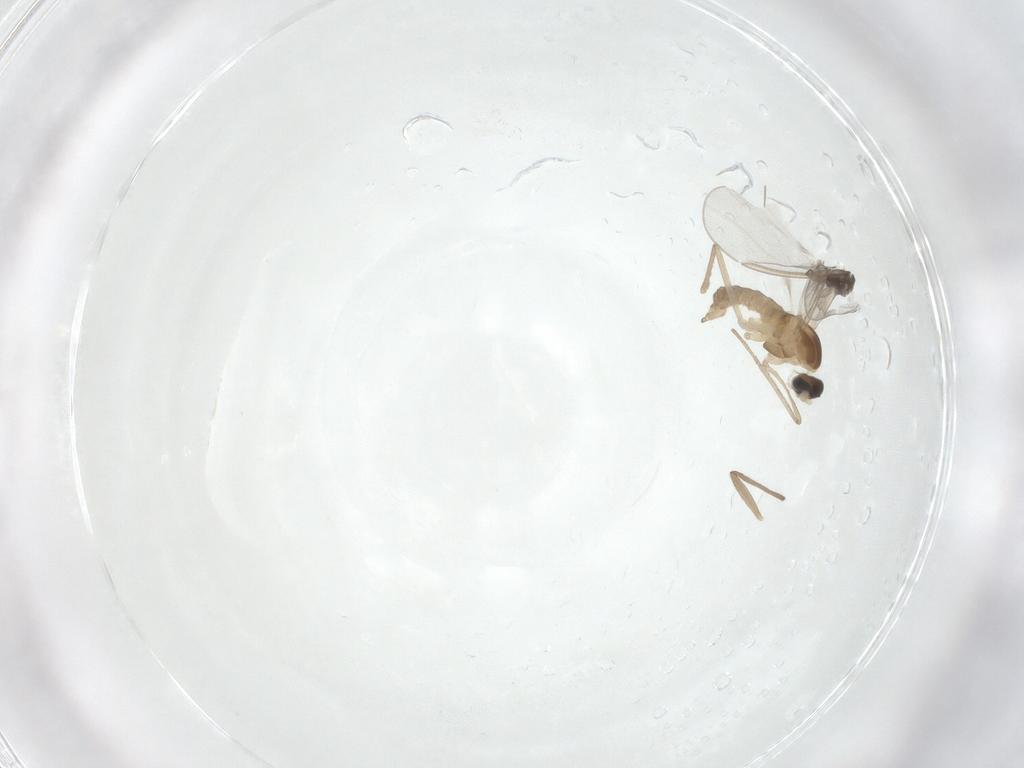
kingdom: Animalia
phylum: Arthropoda
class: Insecta
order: Diptera
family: Cecidomyiidae
